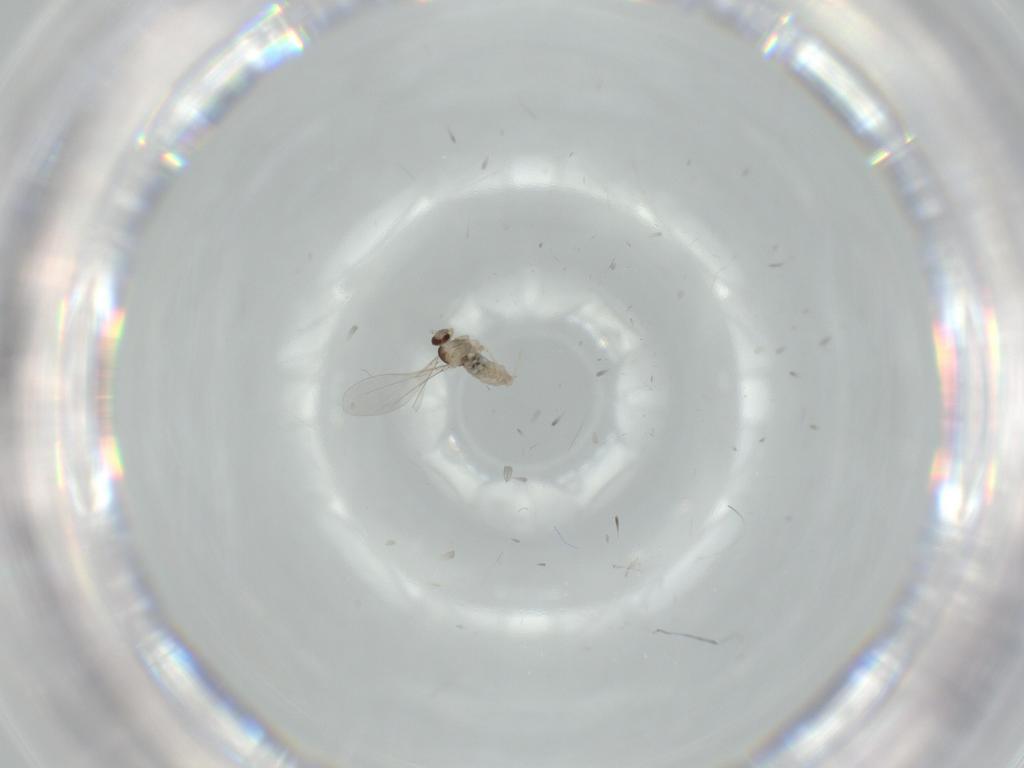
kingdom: Animalia
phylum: Arthropoda
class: Insecta
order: Diptera
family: Cecidomyiidae
